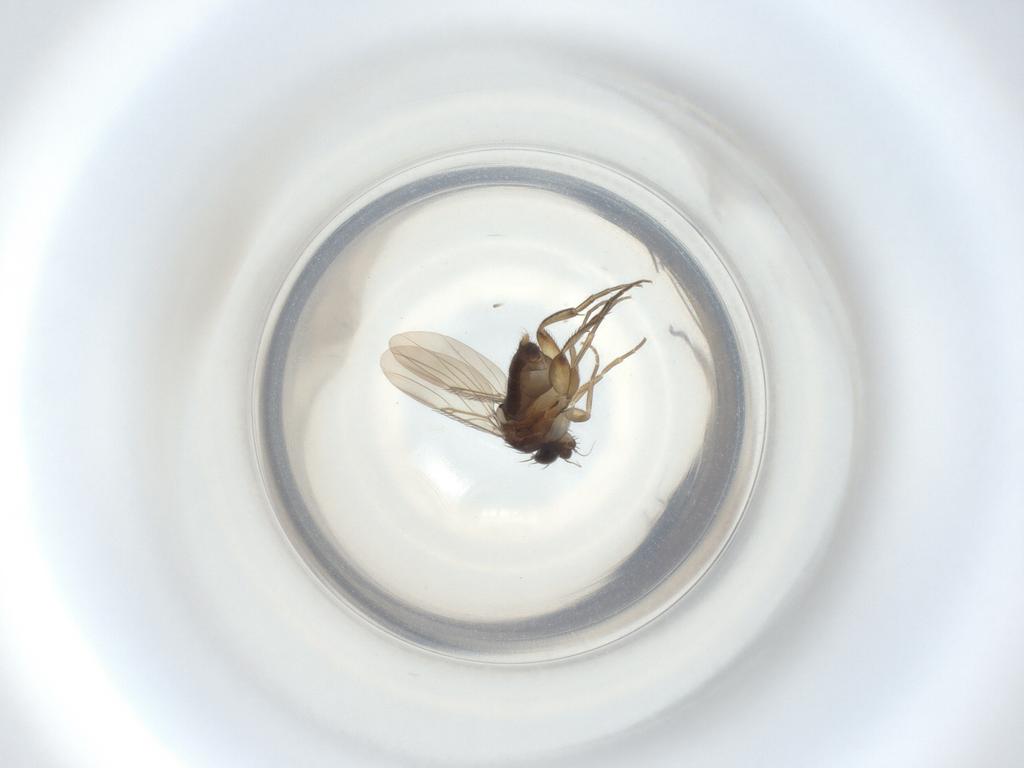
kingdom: Animalia
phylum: Arthropoda
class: Insecta
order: Diptera
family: Phoridae
